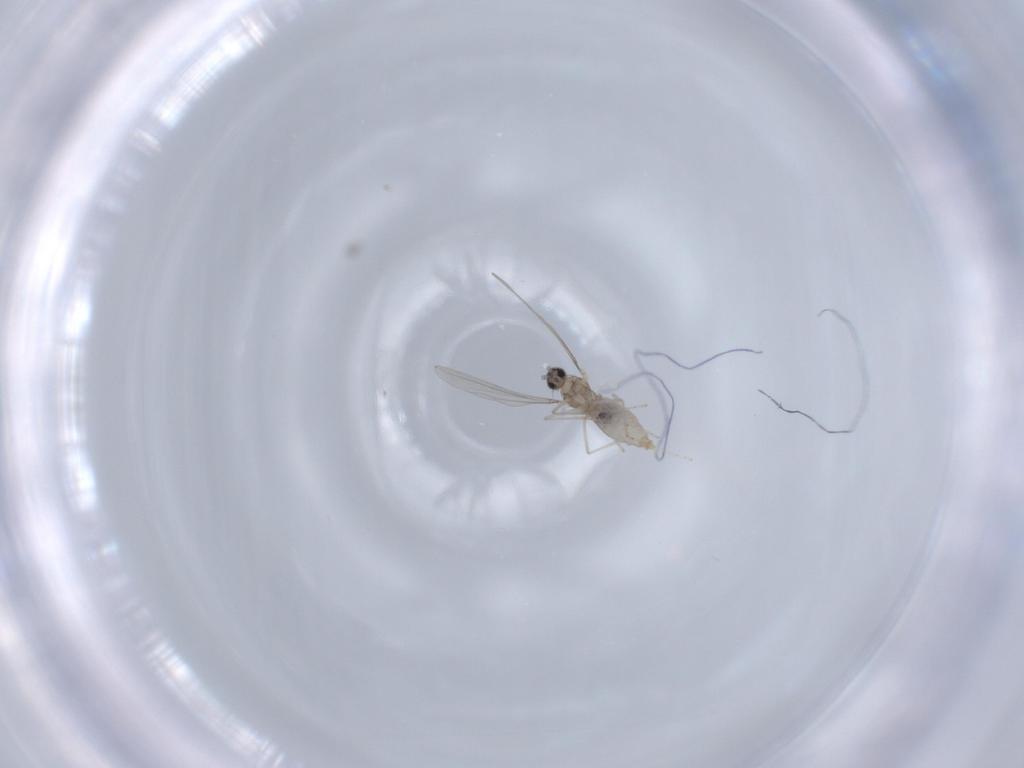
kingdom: Animalia
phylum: Arthropoda
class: Insecta
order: Diptera
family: Cecidomyiidae
